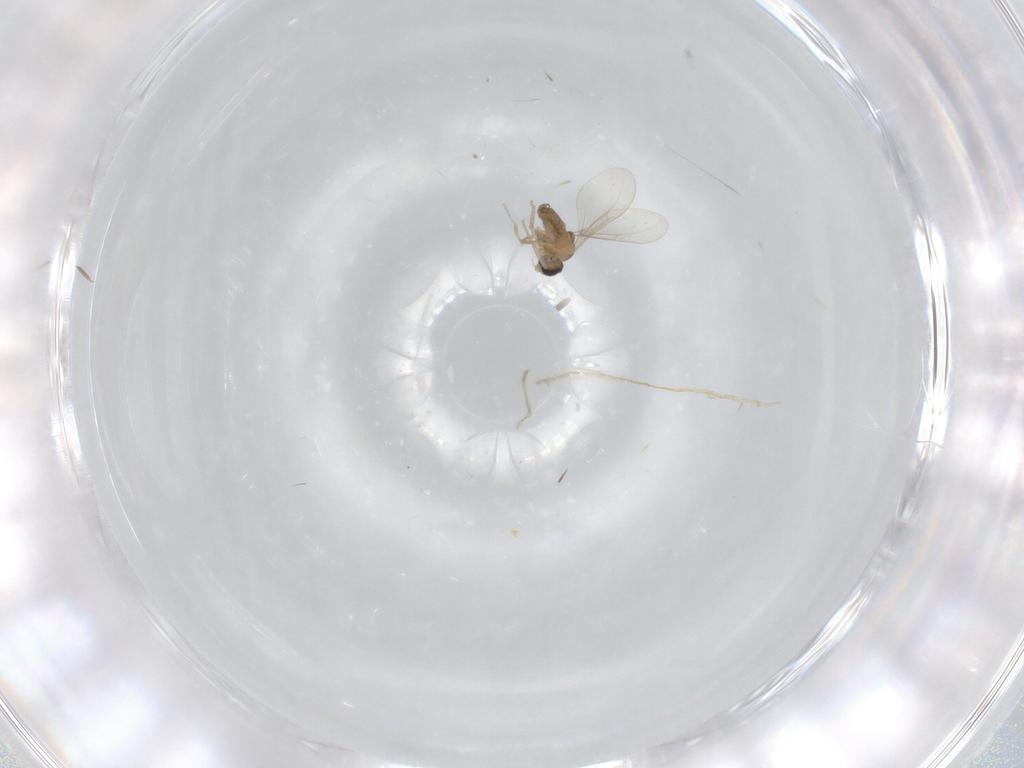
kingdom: Animalia
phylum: Arthropoda
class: Insecta
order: Diptera
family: Cecidomyiidae
